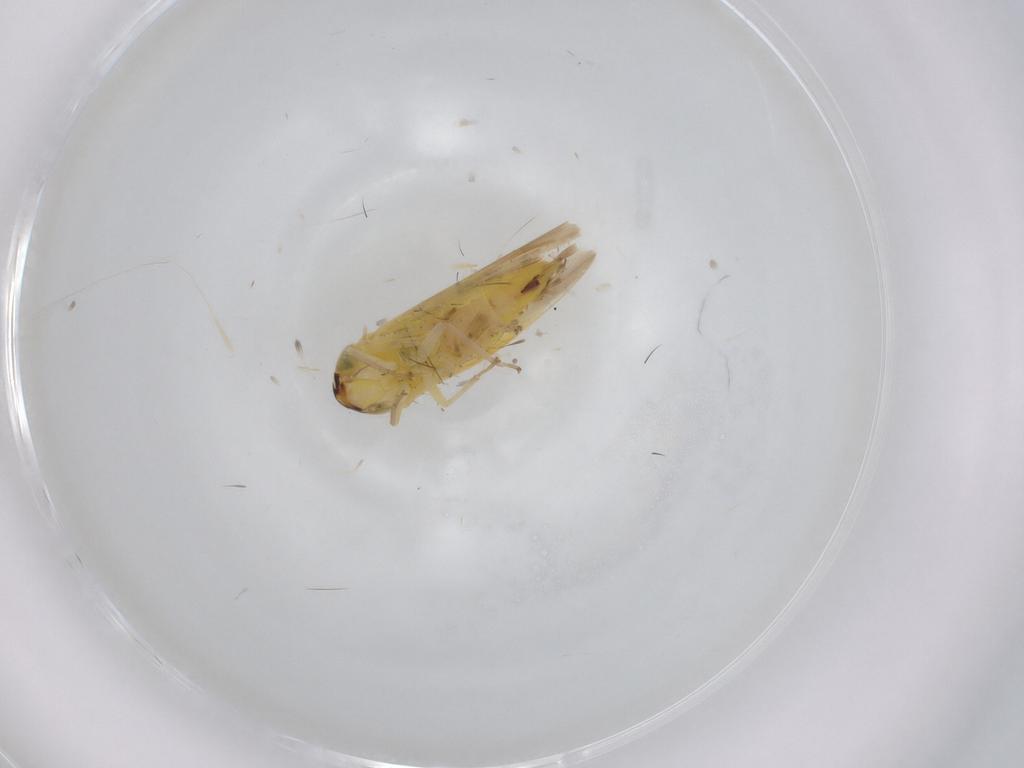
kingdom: Animalia
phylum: Arthropoda
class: Insecta
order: Hemiptera
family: Cicadellidae
